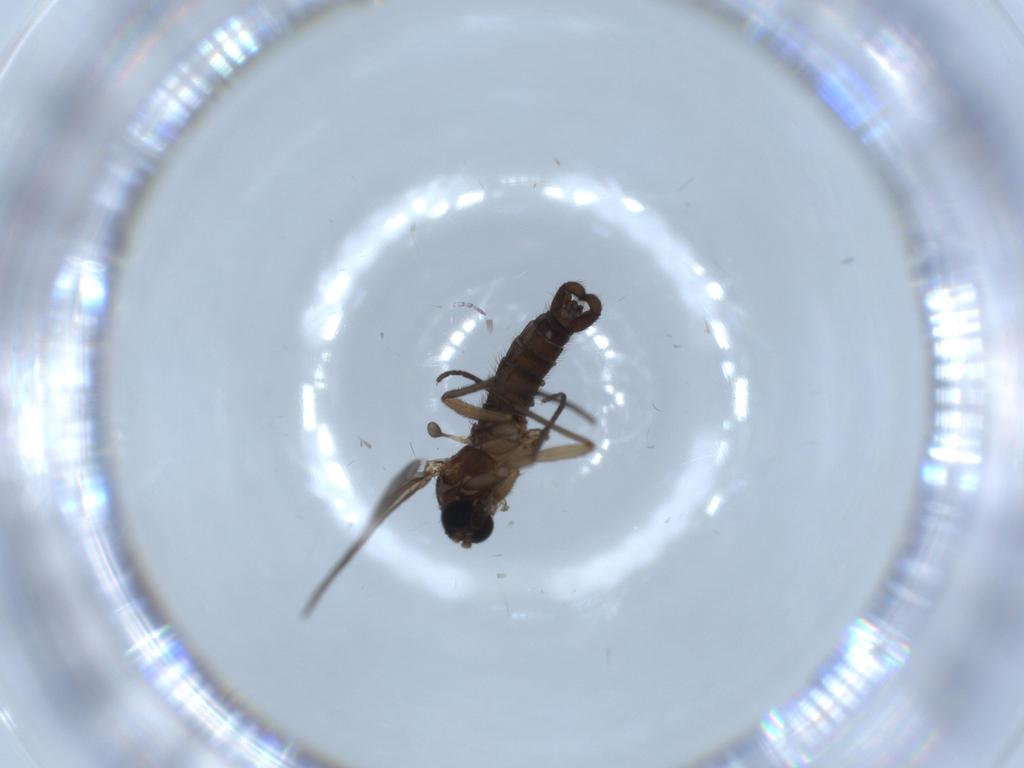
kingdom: Animalia
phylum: Arthropoda
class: Insecta
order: Diptera
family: Sciaridae
